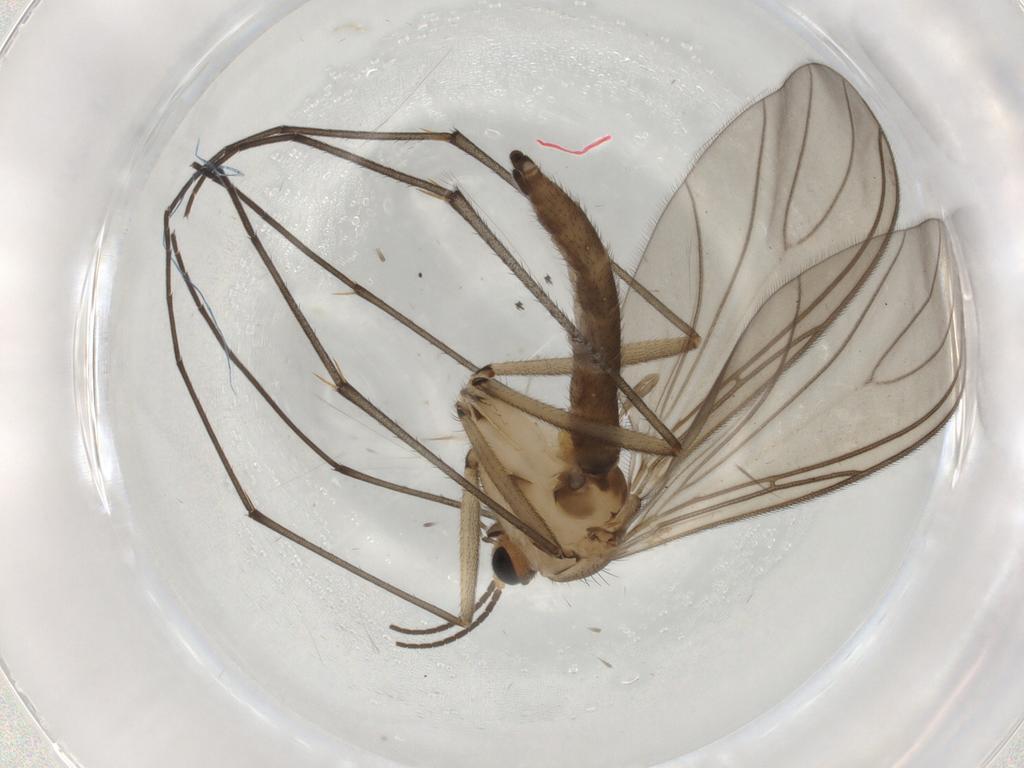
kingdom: Animalia
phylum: Arthropoda
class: Insecta
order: Diptera
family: Sciaridae
